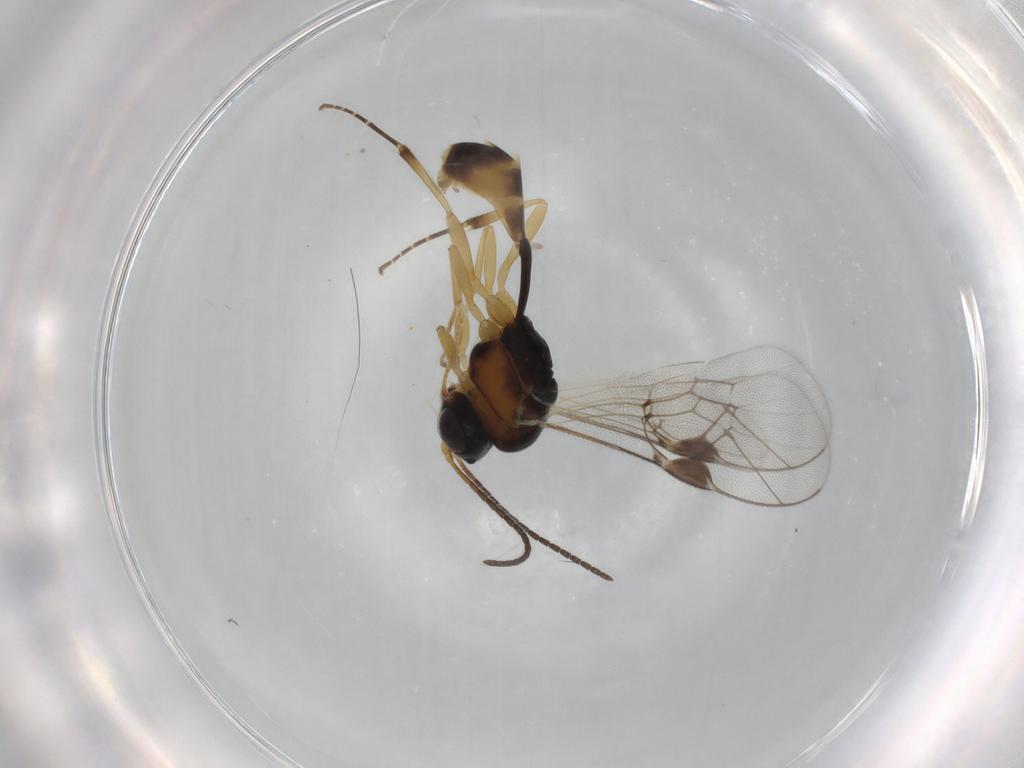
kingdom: Animalia
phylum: Arthropoda
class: Insecta
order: Hymenoptera
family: Ichneumonidae
